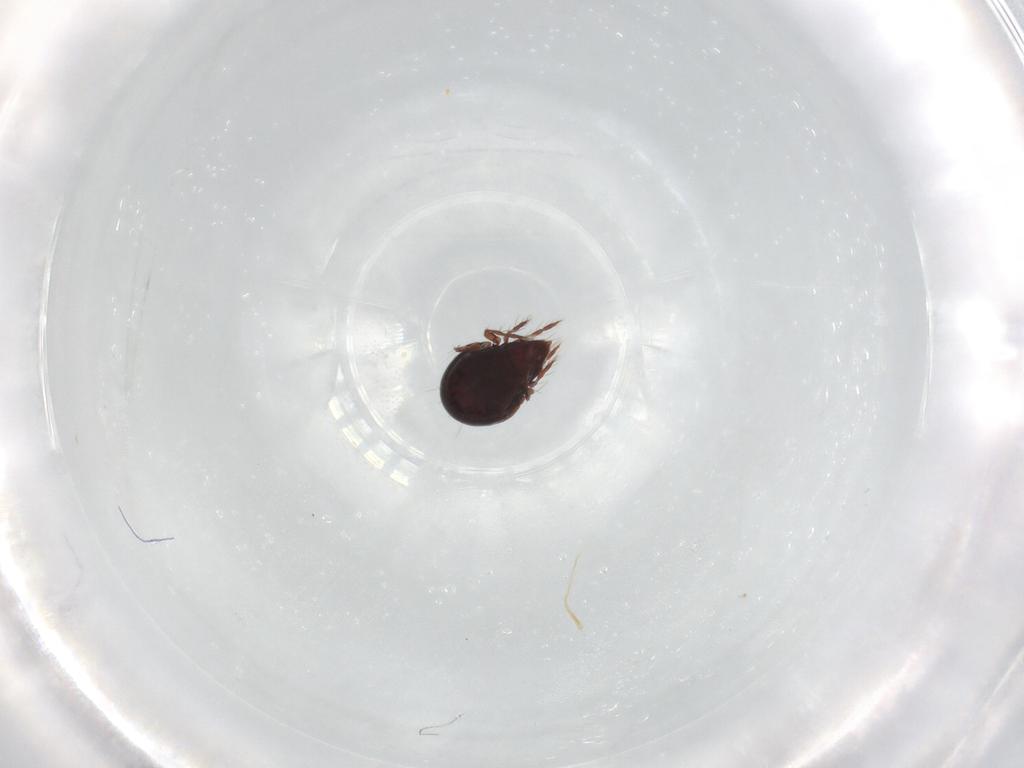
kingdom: Animalia
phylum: Arthropoda
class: Arachnida
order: Sarcoptiformes
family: Ceratoppiidae
